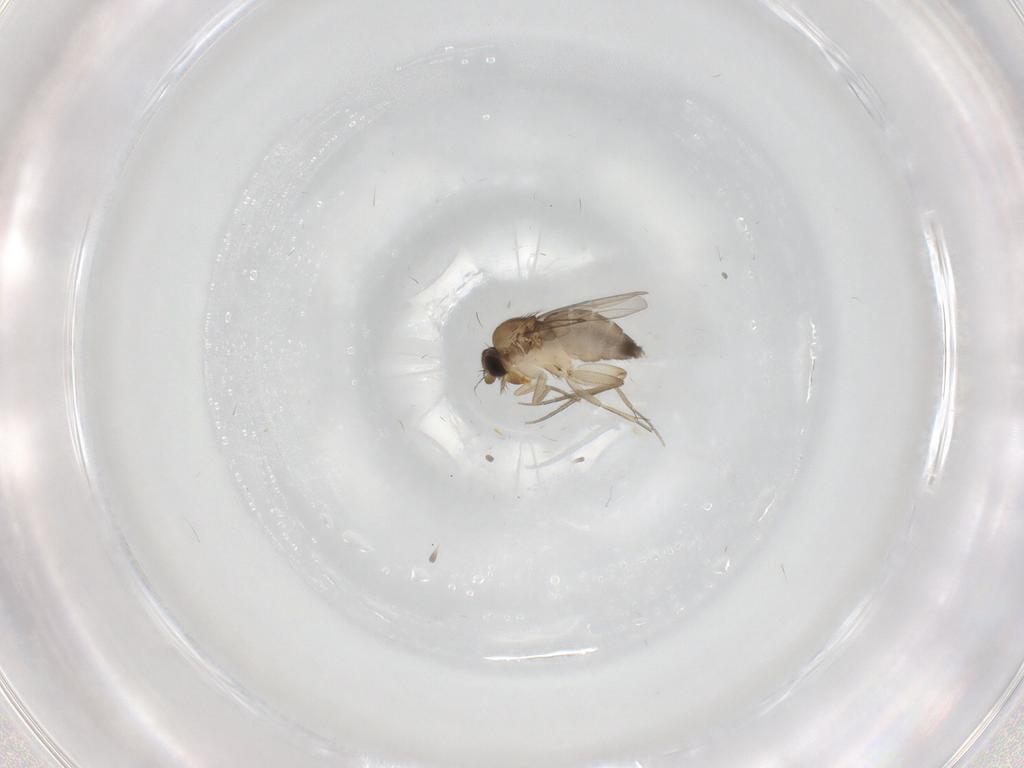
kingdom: Animalia
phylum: Arthropoda
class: Insecta
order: Diptera
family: Phoridae
